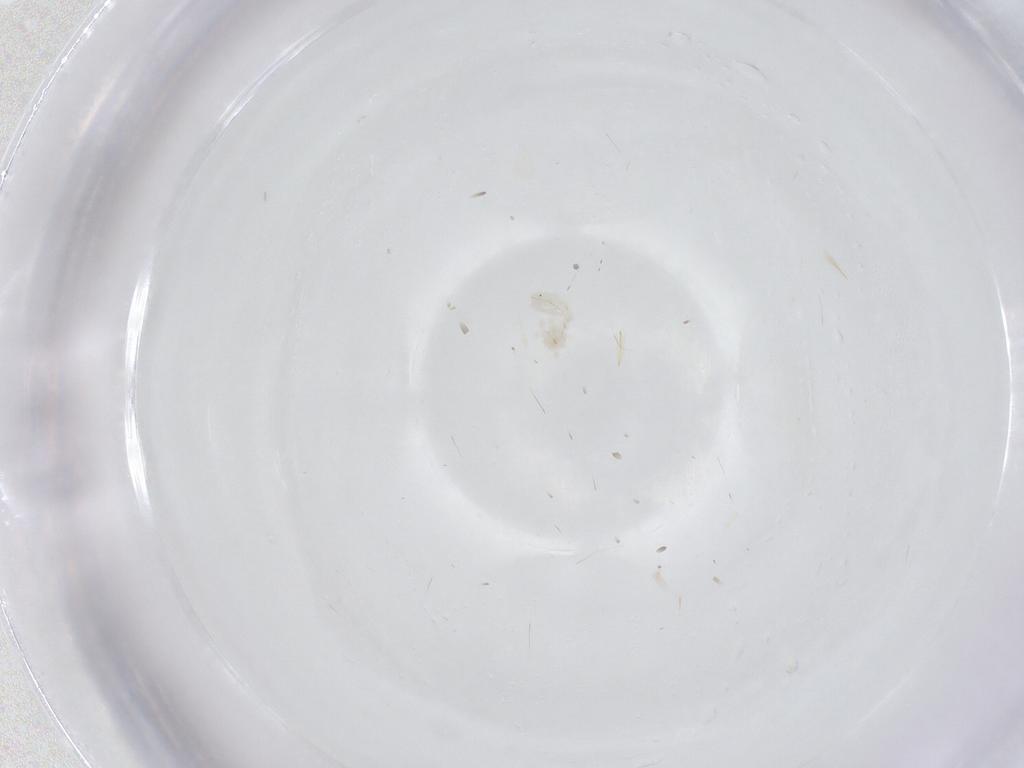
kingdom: Animalia
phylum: Arthropoda
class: Arachnida
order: Trombidiformes
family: Anystidae
